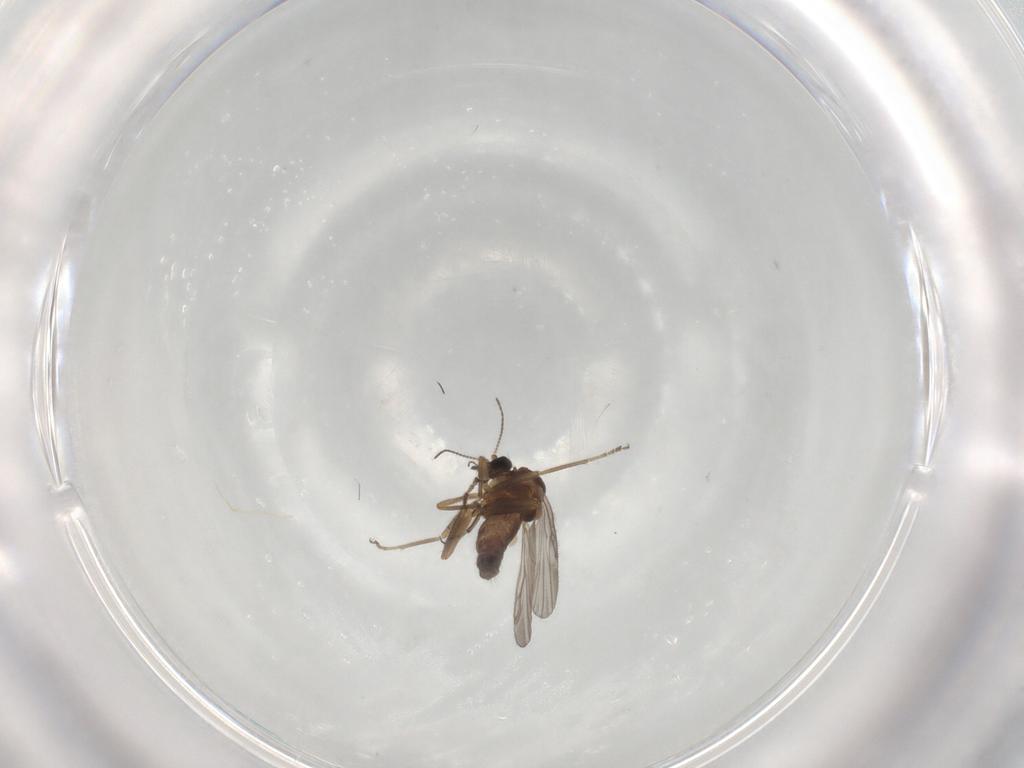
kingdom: Animalia
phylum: Arthropoda
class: Insecta
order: Diptera
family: Ceratopogonidae
